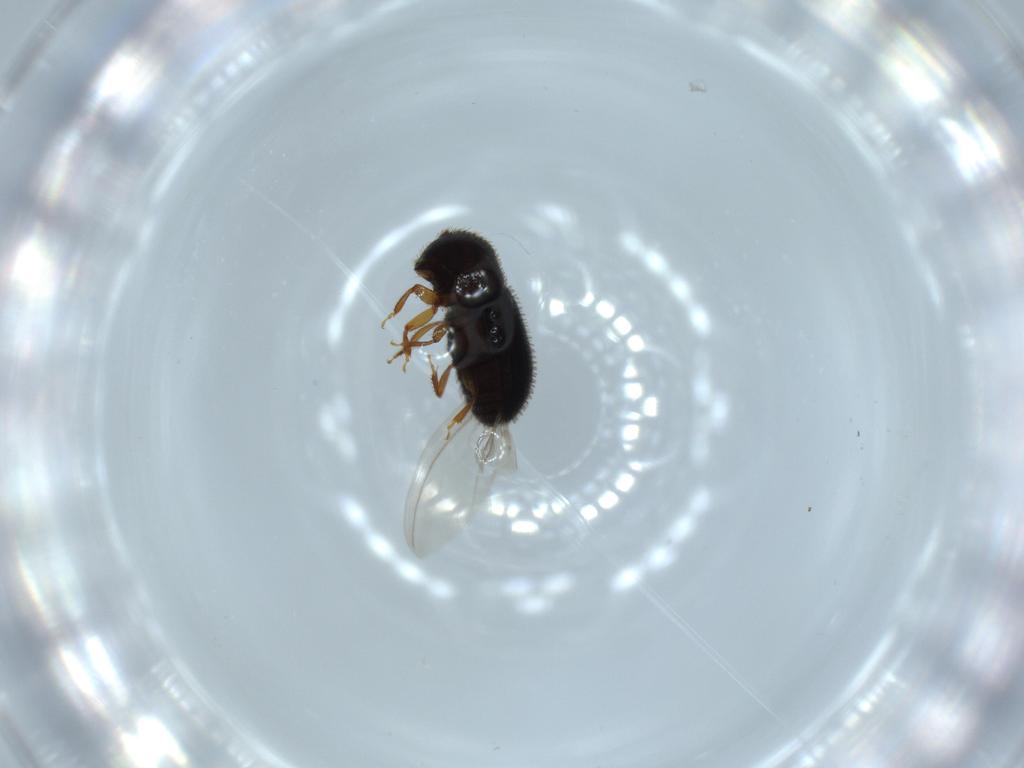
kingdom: Animalia
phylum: Arthropoda
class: Insecta
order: Coleoptera
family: Curculionidae
